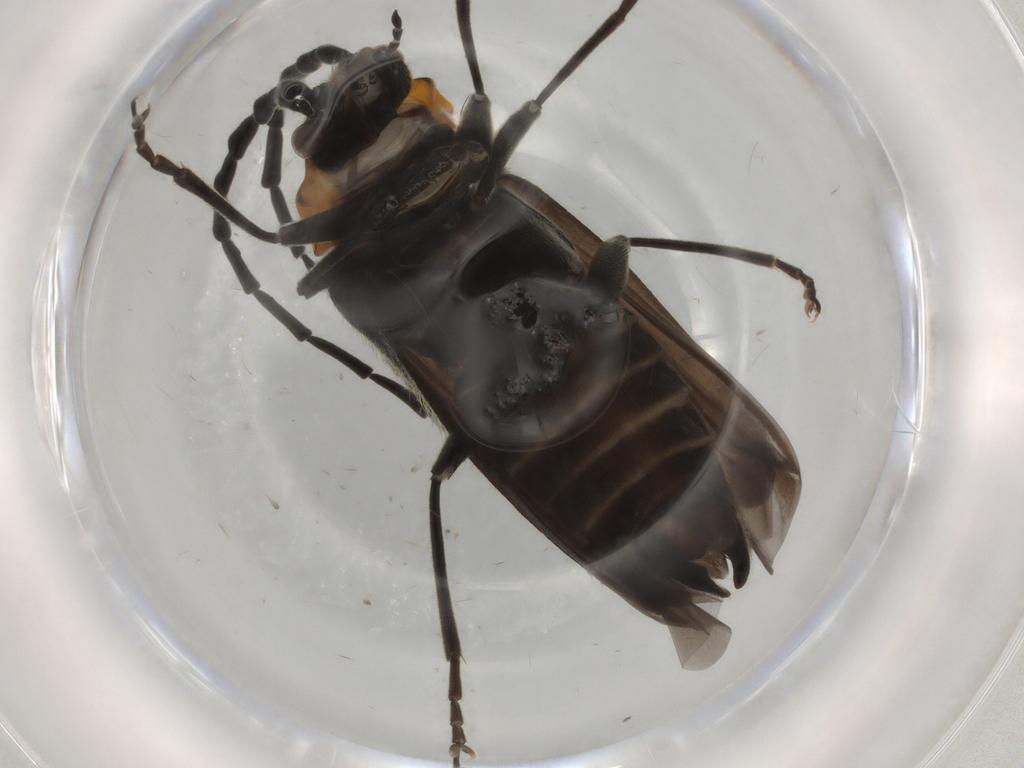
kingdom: Animalia
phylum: Arthropoda
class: Insecta
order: Coleoptera
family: Cantharidae
